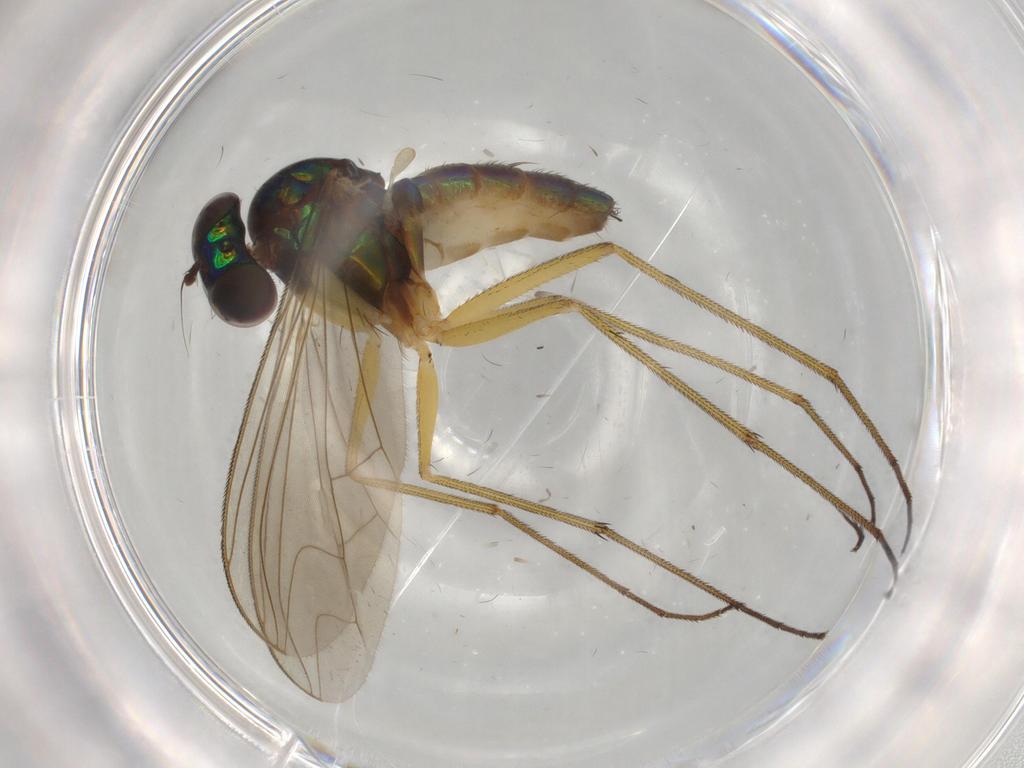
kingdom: Animalia
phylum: Arthropoda
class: Insecta
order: Diptera
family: Dolichopodidae
